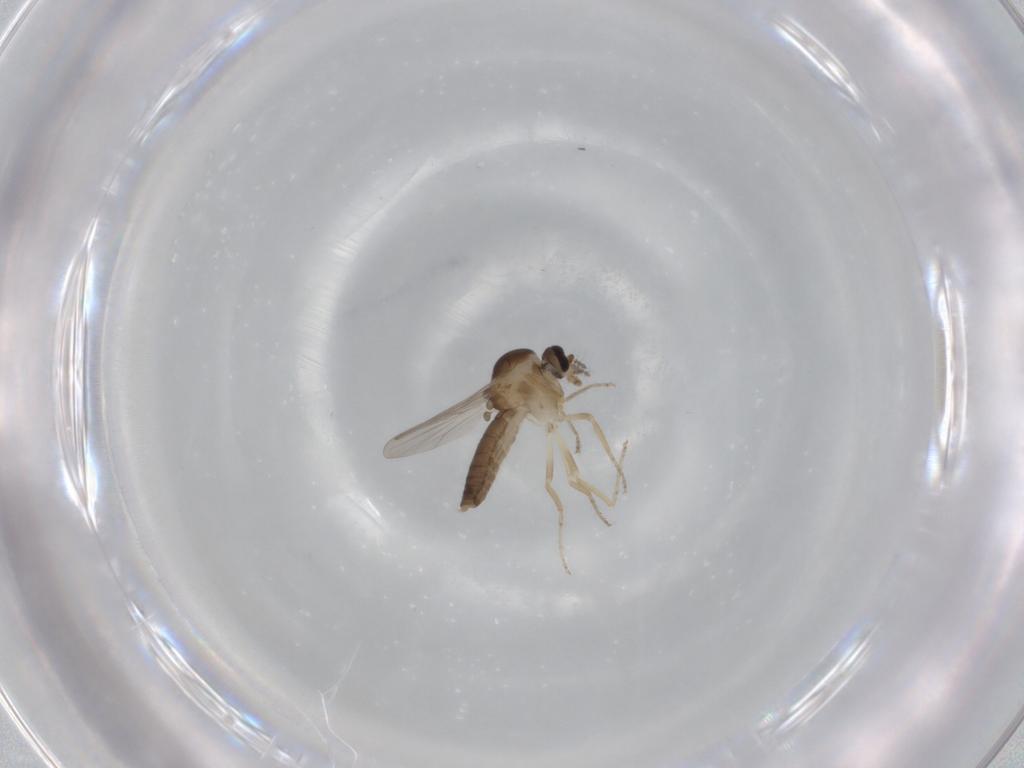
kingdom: Animalia
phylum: Arthropoda
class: Insecta
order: Diptera
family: Ceratopogonidae
